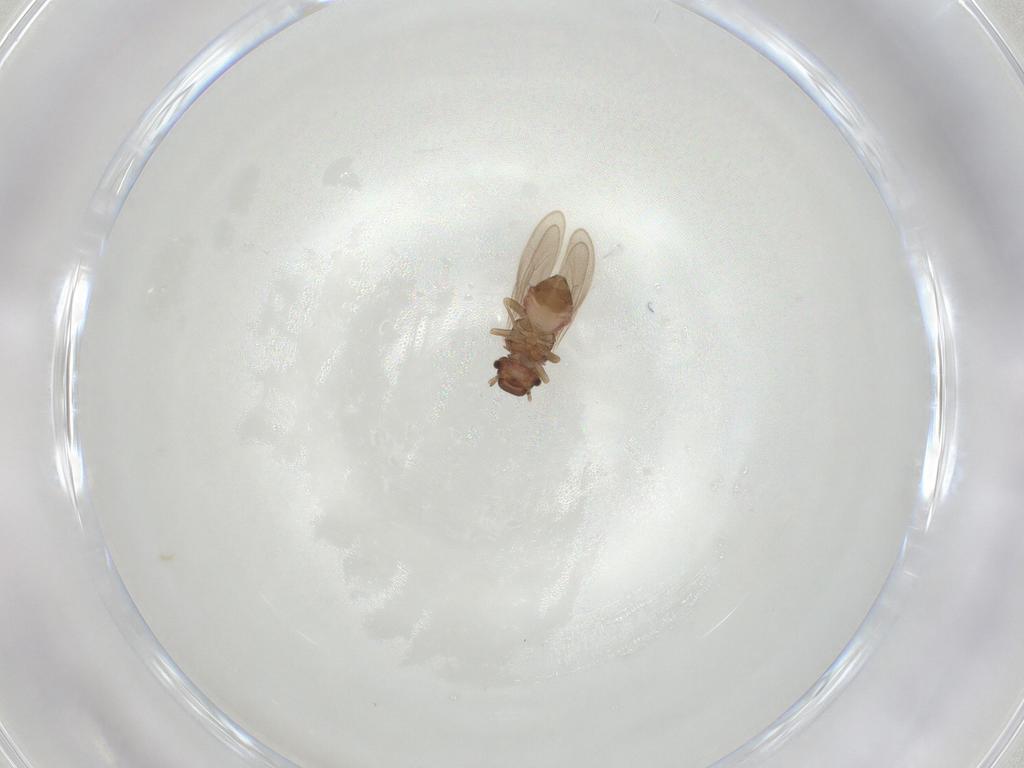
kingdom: Animalia
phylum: Arthropoda
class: Insecta
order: Psocodea
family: Archipsocidae
